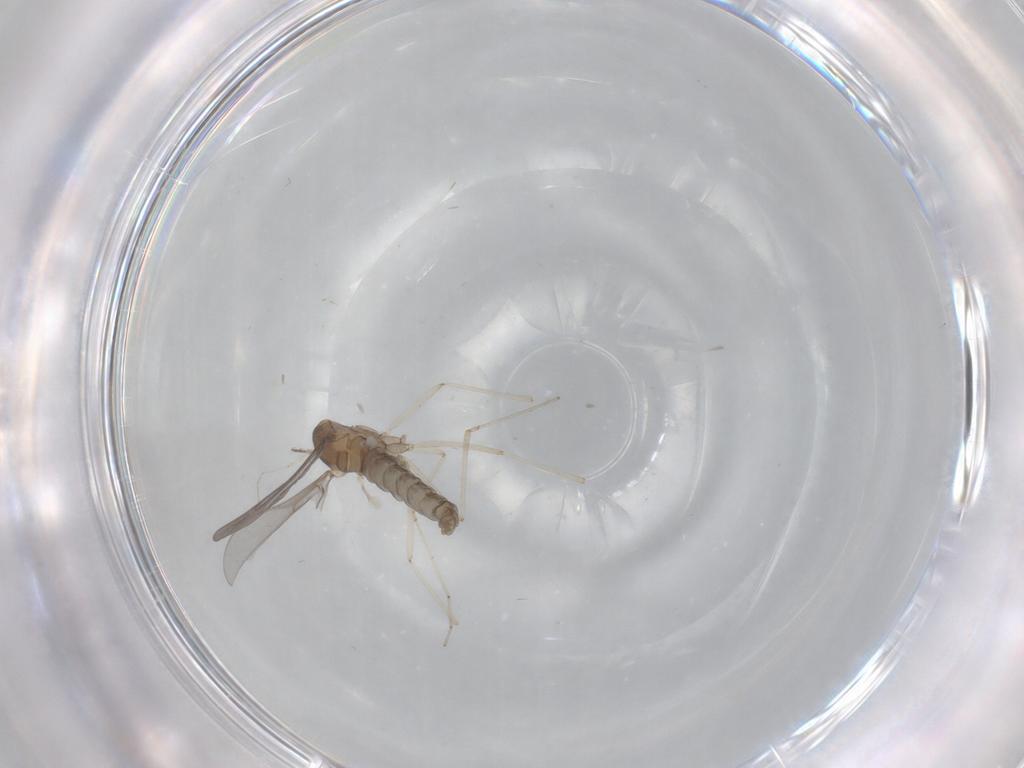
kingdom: Animalia
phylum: Arthropoda
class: Insecta
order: Diptera
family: Cecidomyiidae
